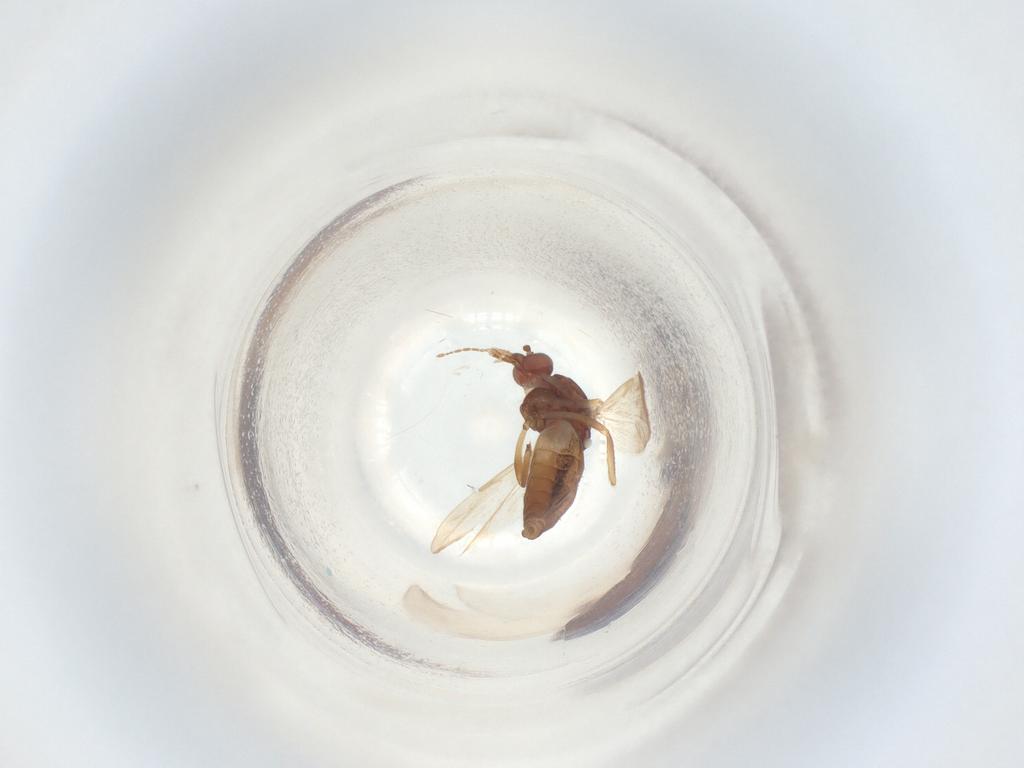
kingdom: Animalia
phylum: Arthropoda
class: Insecta
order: Diptera
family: Ceratopogonidae
